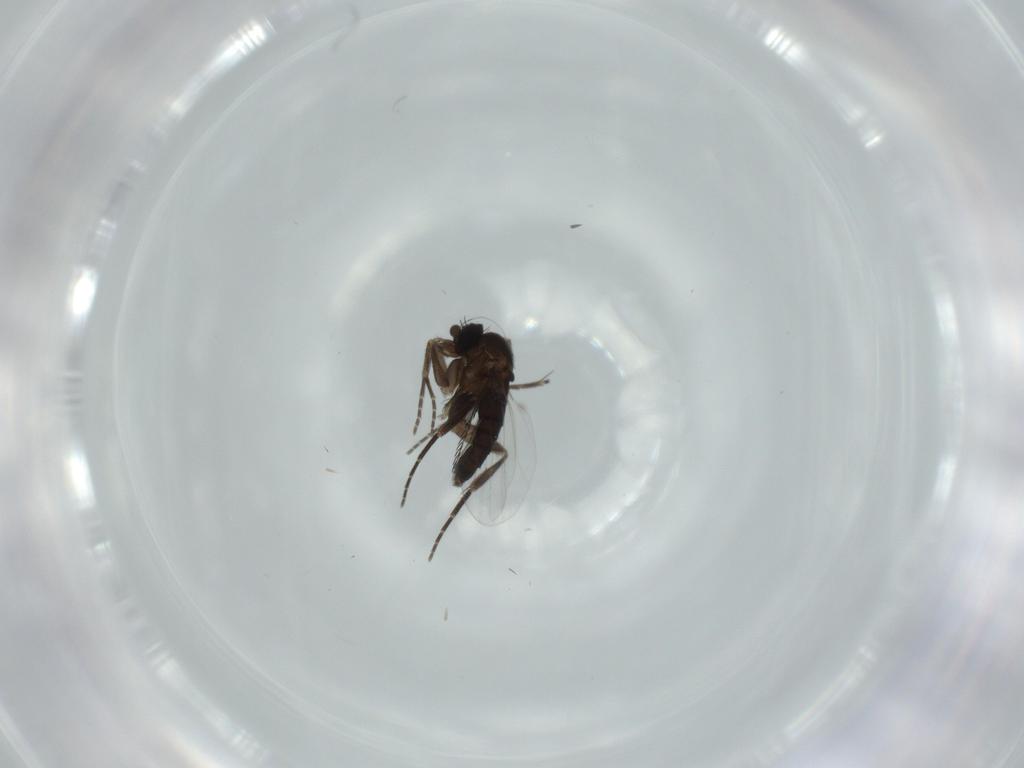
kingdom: Animalia
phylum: Arthropoda
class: Insecta
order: Diptera
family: Phoridae
